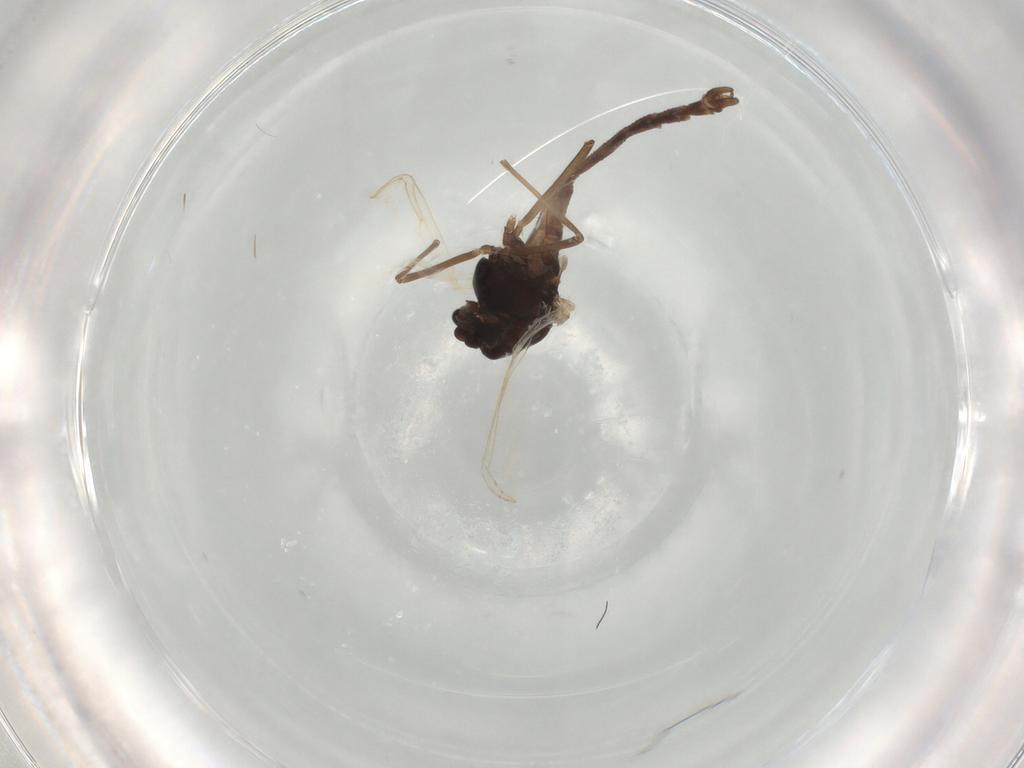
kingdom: Animalia
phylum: Arthropoda
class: Insecta
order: Diptera
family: Chironomidae
